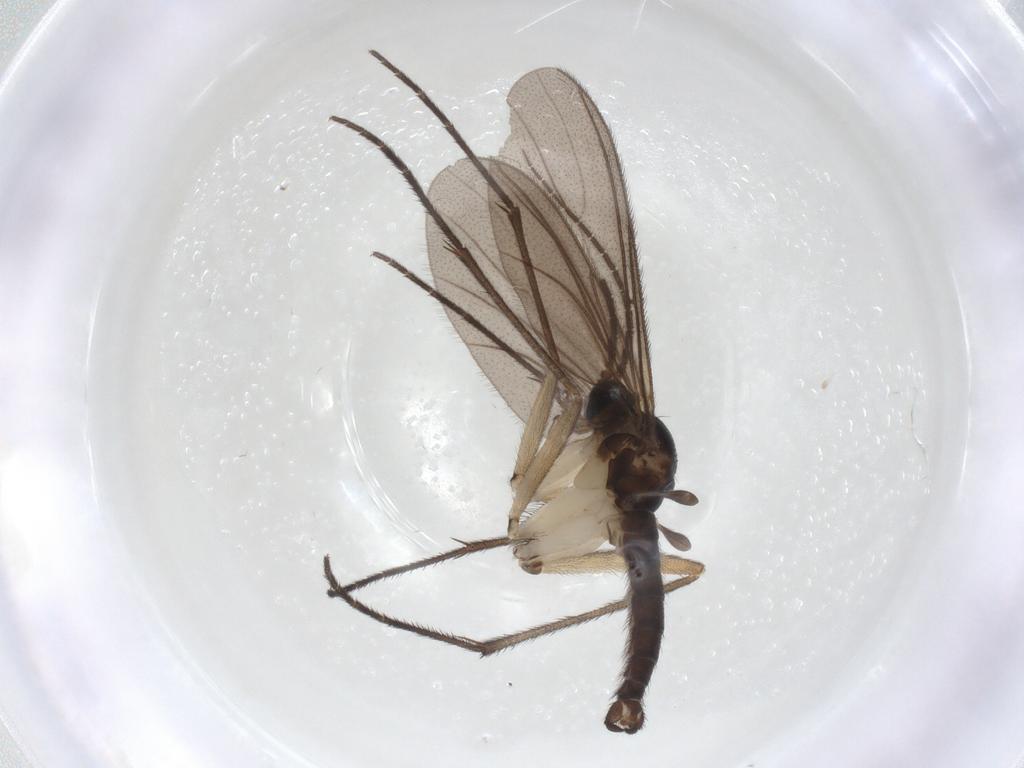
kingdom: Animalia
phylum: Arthropoda
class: Insecta
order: Diptera
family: Sciaridae
